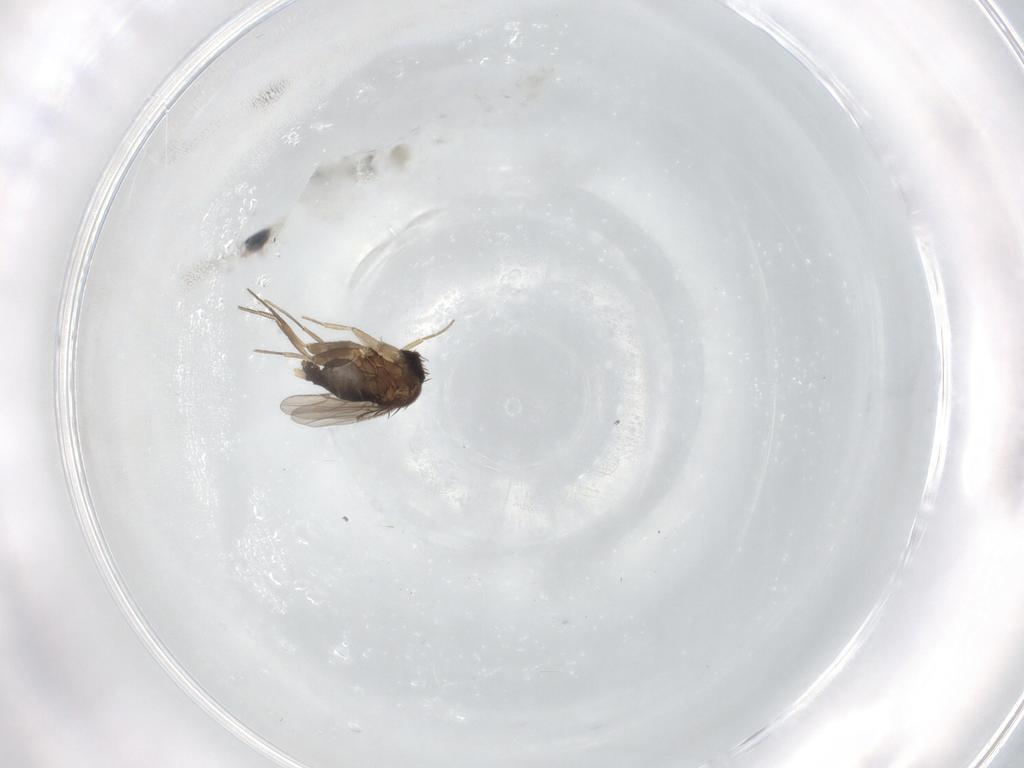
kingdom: Animalia
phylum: Arthropoda
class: Insecta
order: Diptera
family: Phoridae
